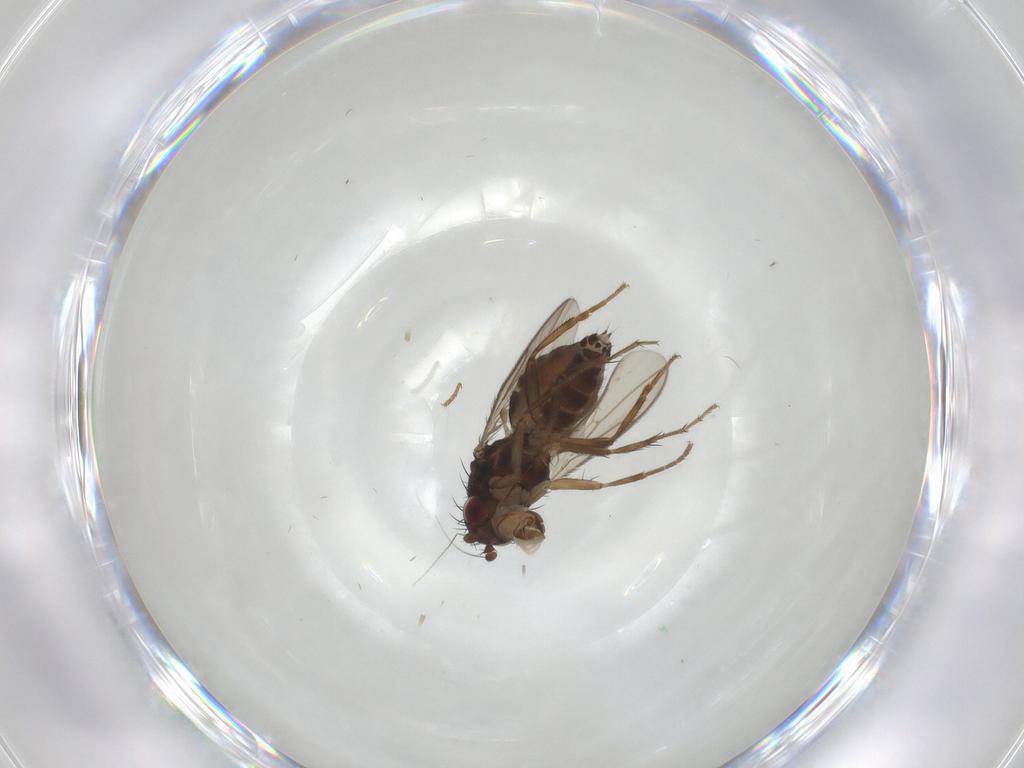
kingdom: Animalia
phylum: Arthropoda
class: Insecta
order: Diptera
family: Sphaeroceridae
